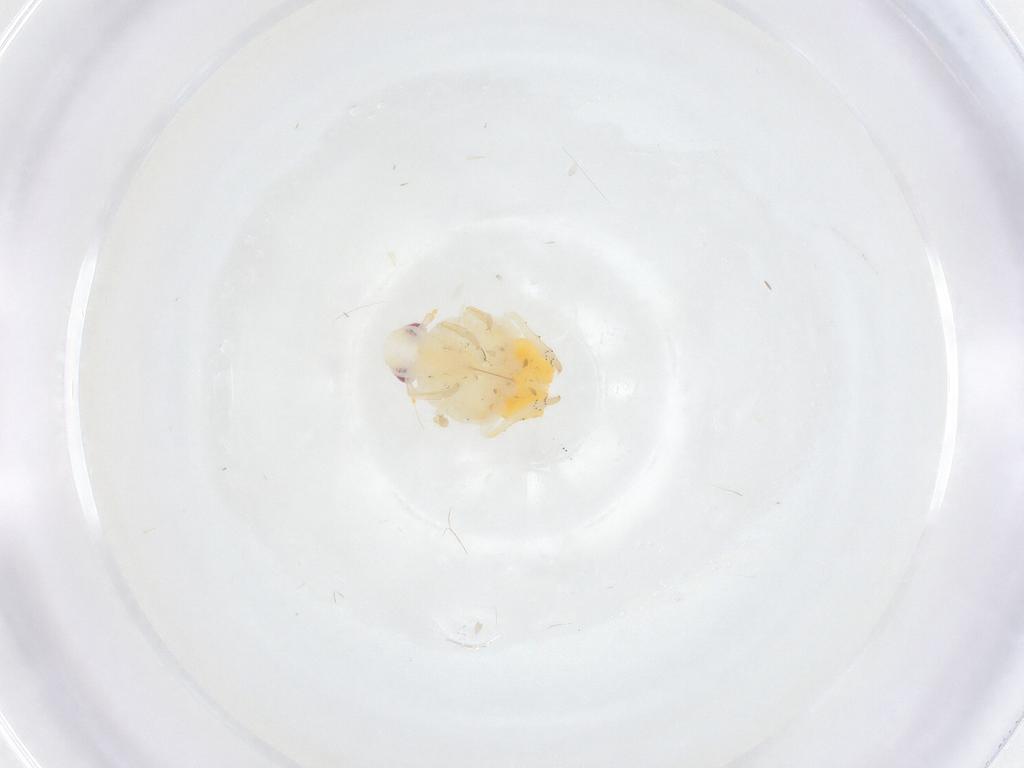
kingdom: Animalia
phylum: Arthropoda
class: Insecta
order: Hemiptera
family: Fulgoroidea_incertae_sedis
